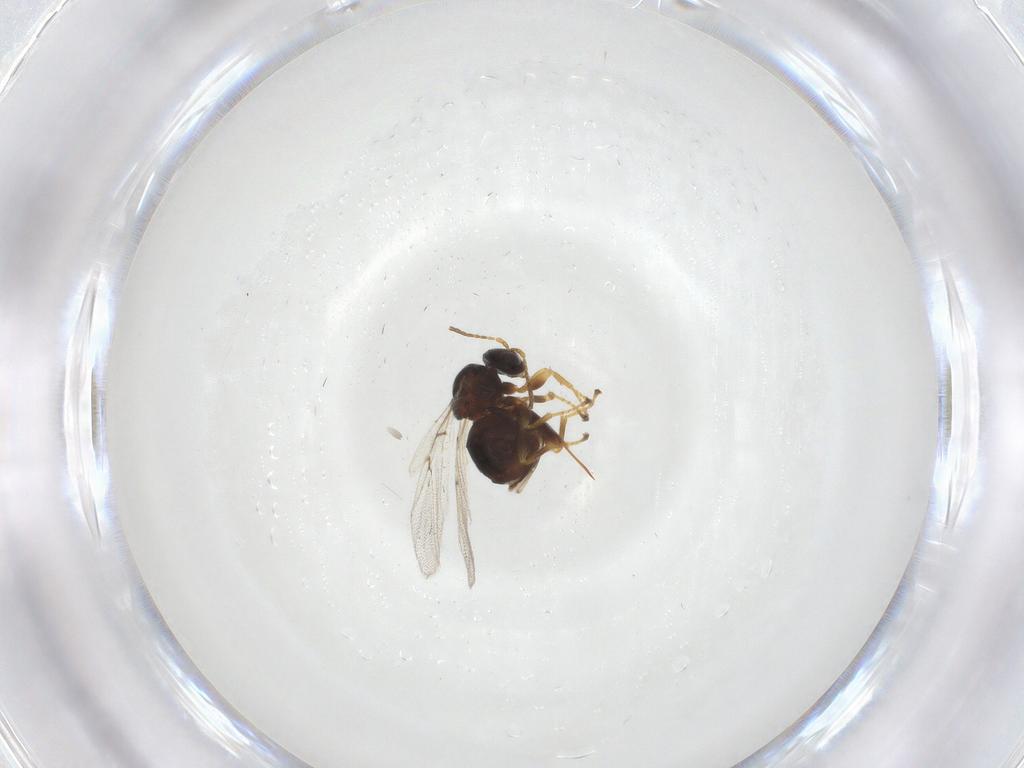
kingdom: Animalia
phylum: Arthropoda
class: Insecta
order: Hymenoptera
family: Cynipidae
